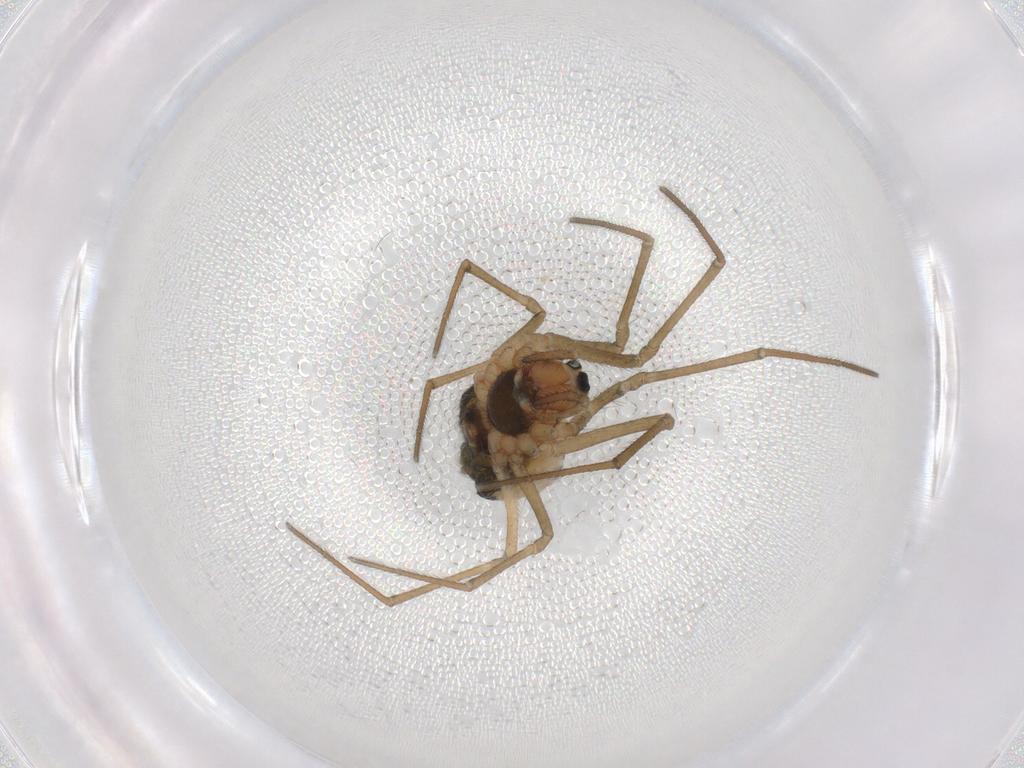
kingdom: Animalia
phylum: Arthropoda
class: Arachnida
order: Araneae
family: Linyphiidae
